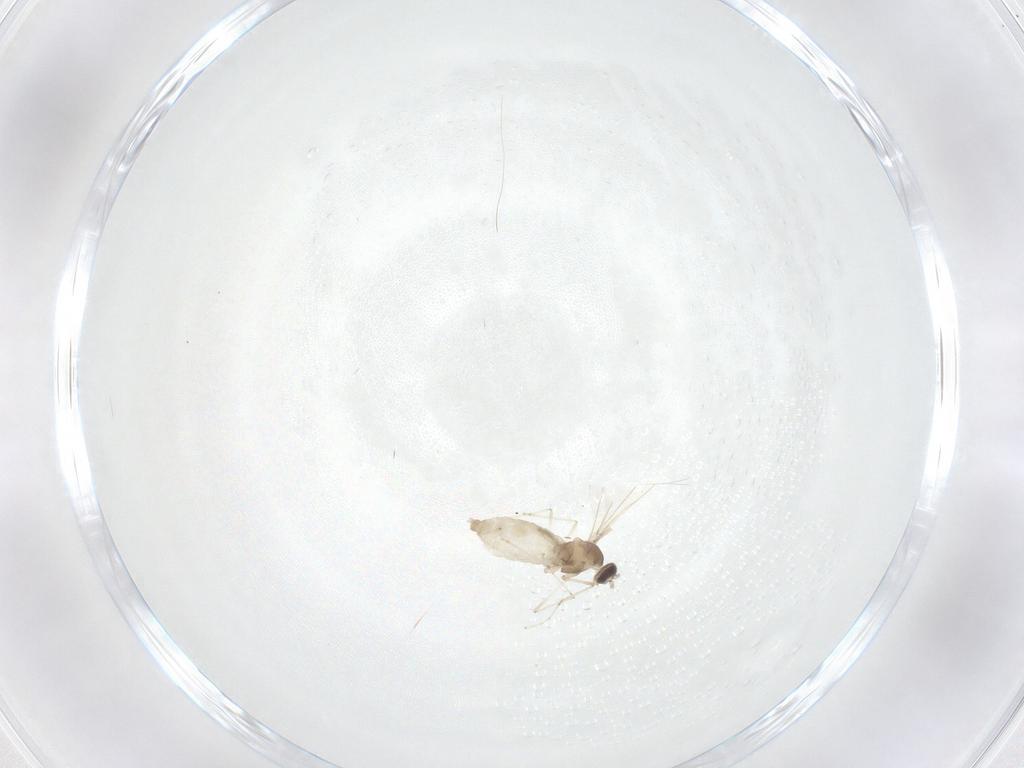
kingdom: Animalia
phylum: Arthropoda
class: Insecta
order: Diptera
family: Cecidomyiidae
